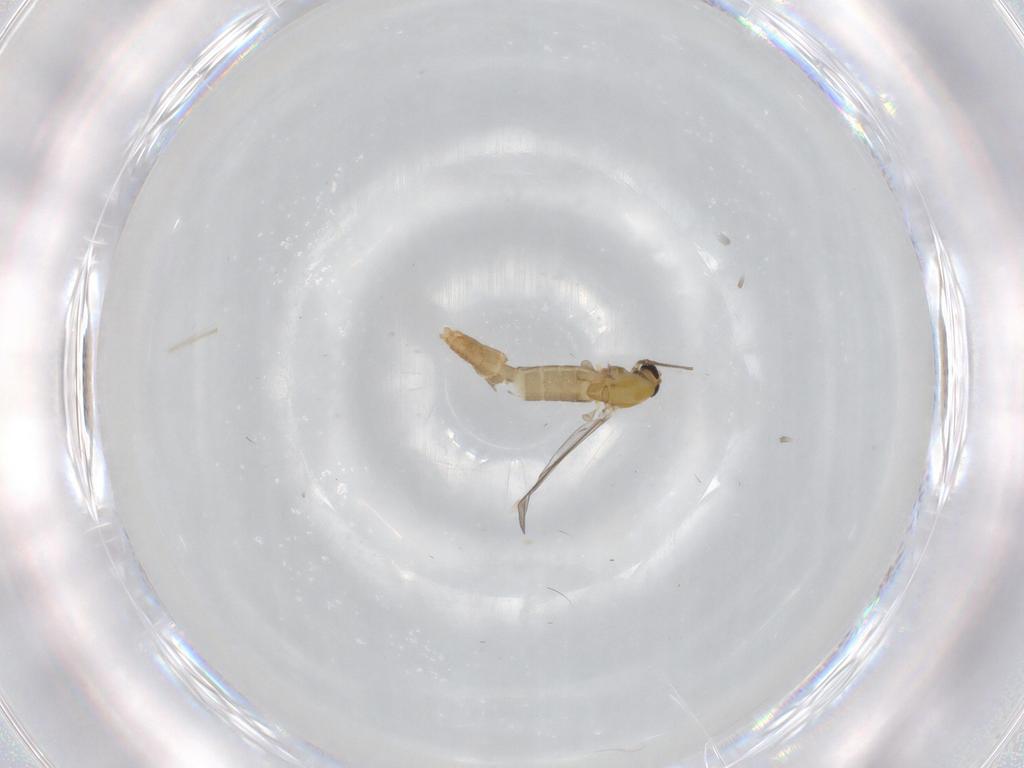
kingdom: Animalia
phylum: Arthropoda
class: Insecta
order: Diptera
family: Chironomidae
